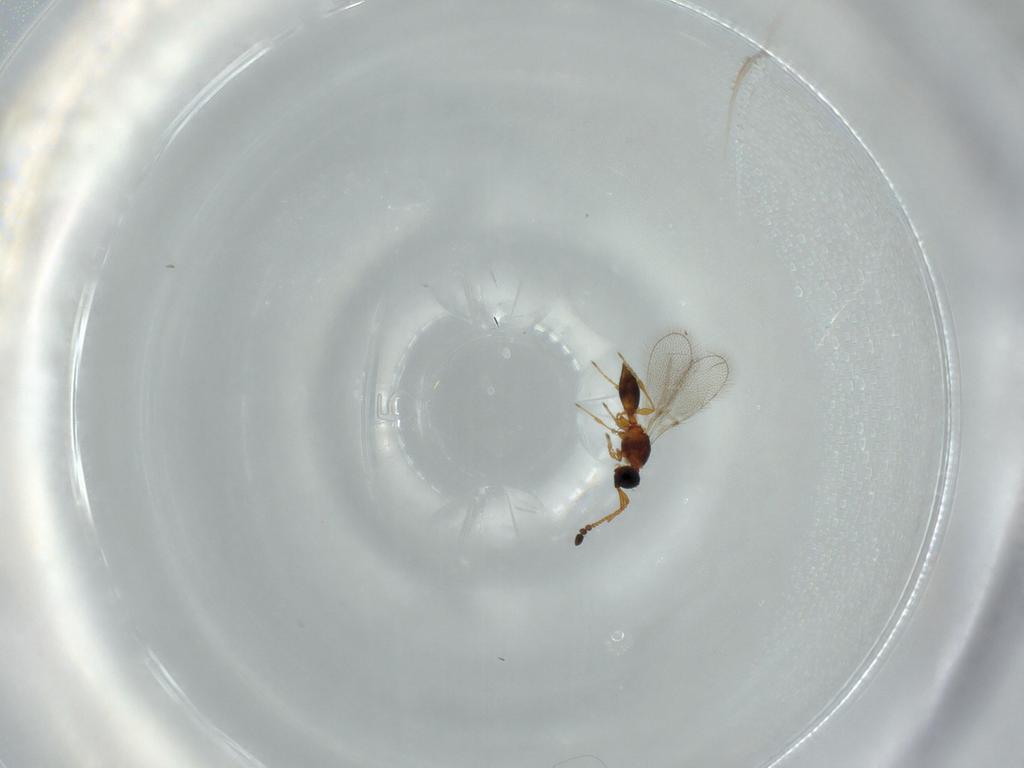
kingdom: Animalia
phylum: Arthropoda
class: Insecta
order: Hymenoptera
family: Diapriidae
